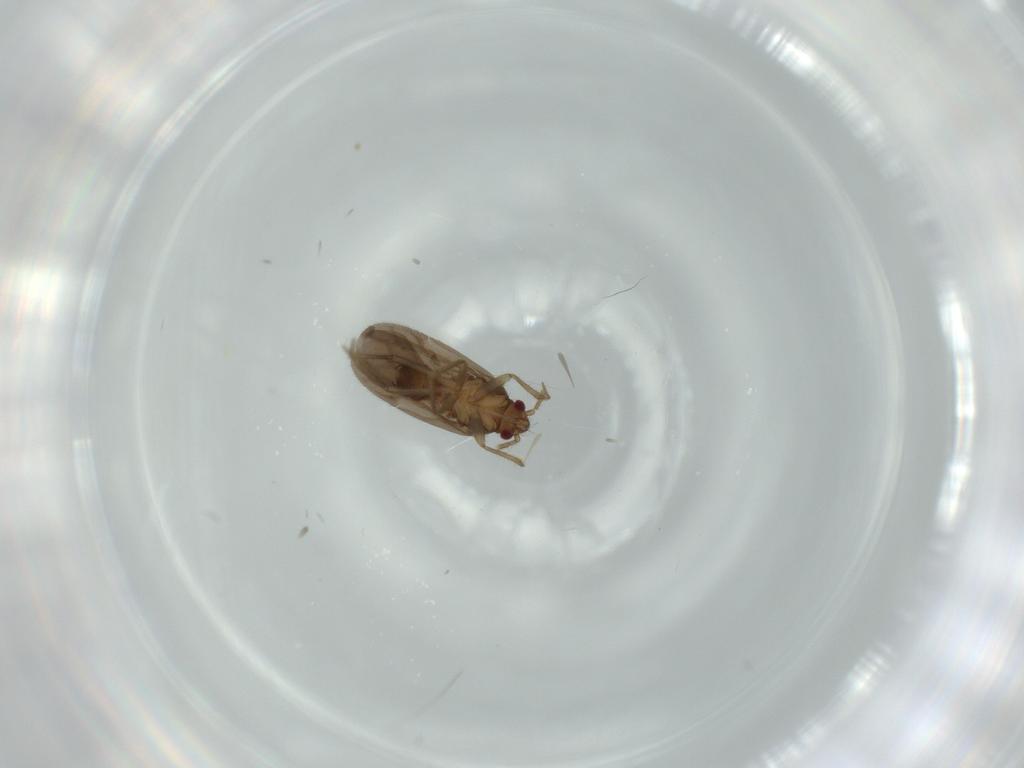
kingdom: Animalia
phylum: Arthropoda
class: Insecta
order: Hemiptera
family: Ceratocombidae
